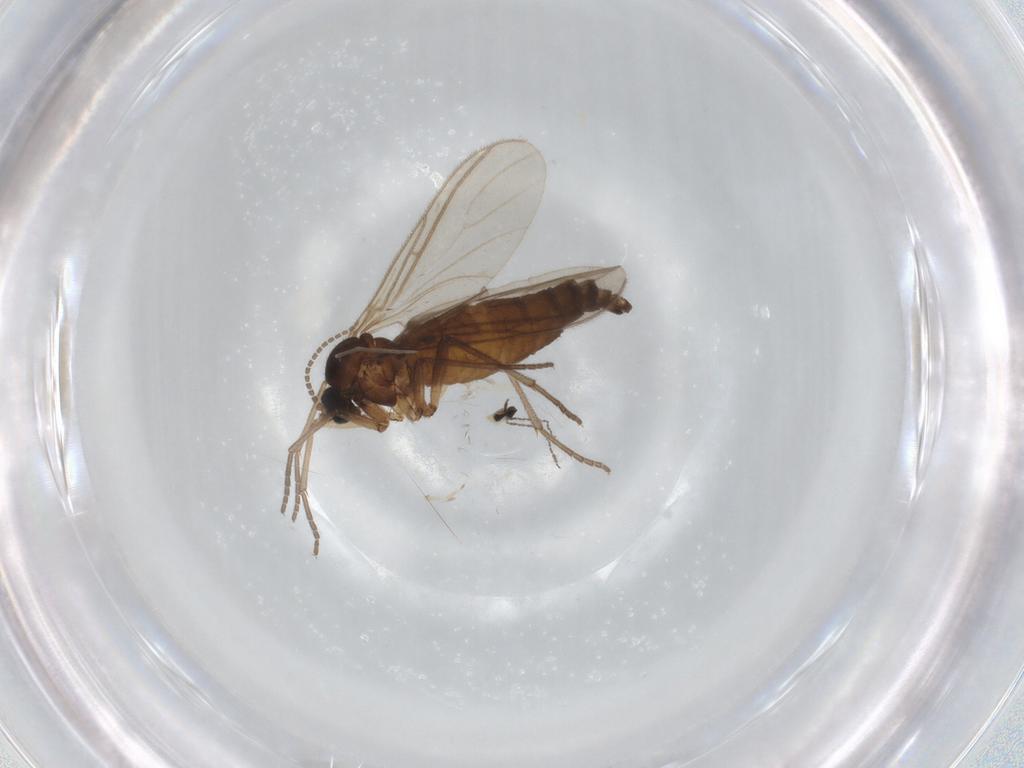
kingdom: Animalia
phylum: Arthropoda
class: Insecta
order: Diptera
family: Sciaridae
